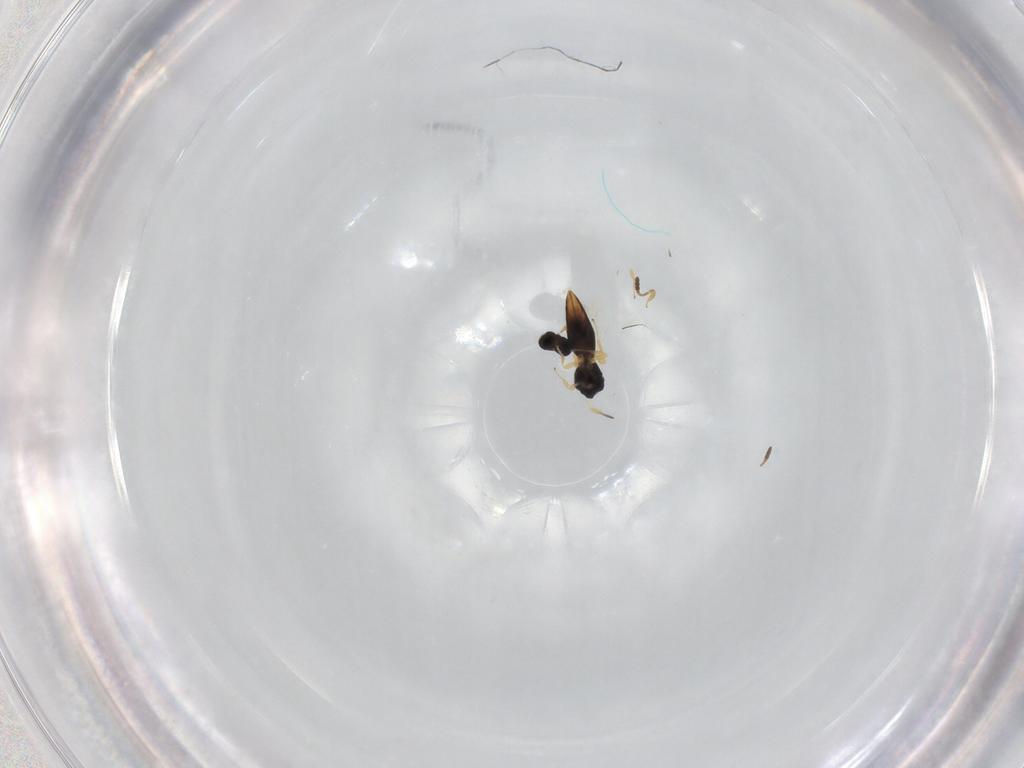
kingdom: Animalia
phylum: Arthropoda
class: Insecta
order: Hymenoptera
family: Scelionidae
